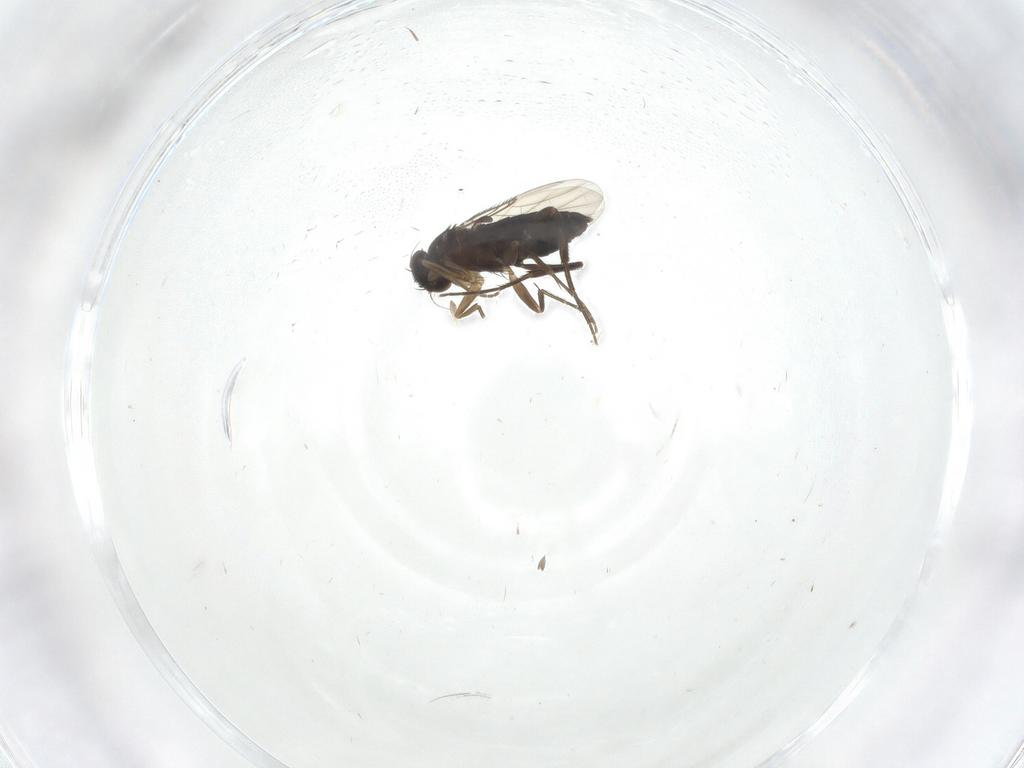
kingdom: Animalia
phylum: Arthropoda
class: Insecta
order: Diptera
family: Phoridae
